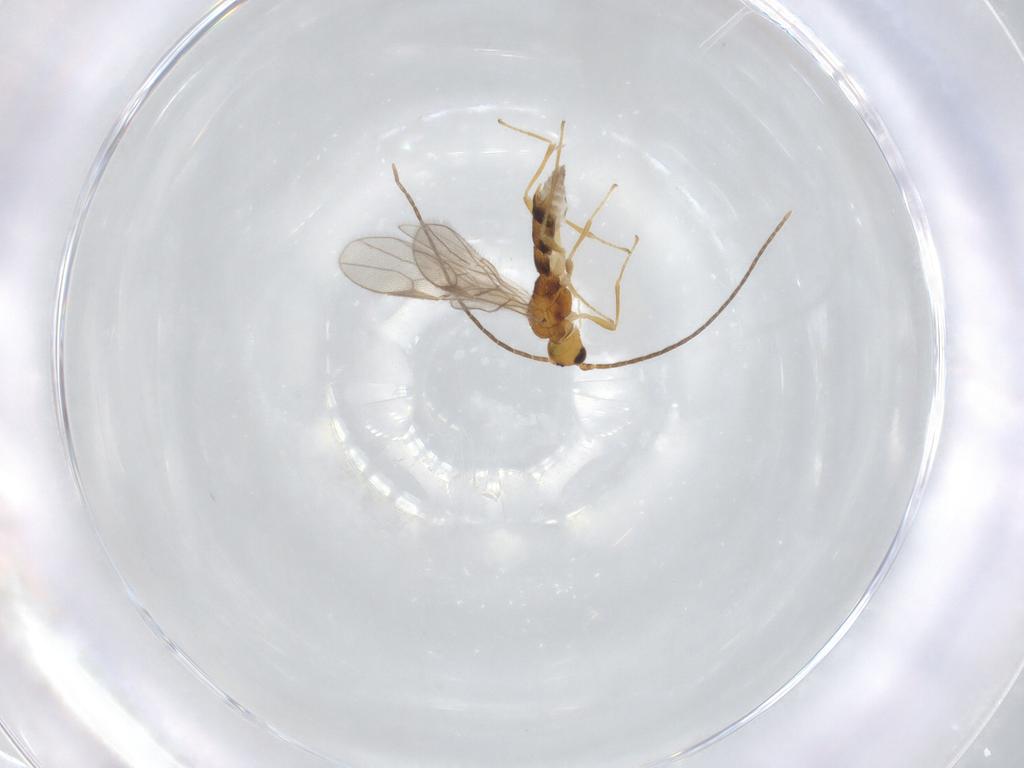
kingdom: Animalia
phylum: Arthropoda
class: Insecta
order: Hymenoptera
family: Braconidae
